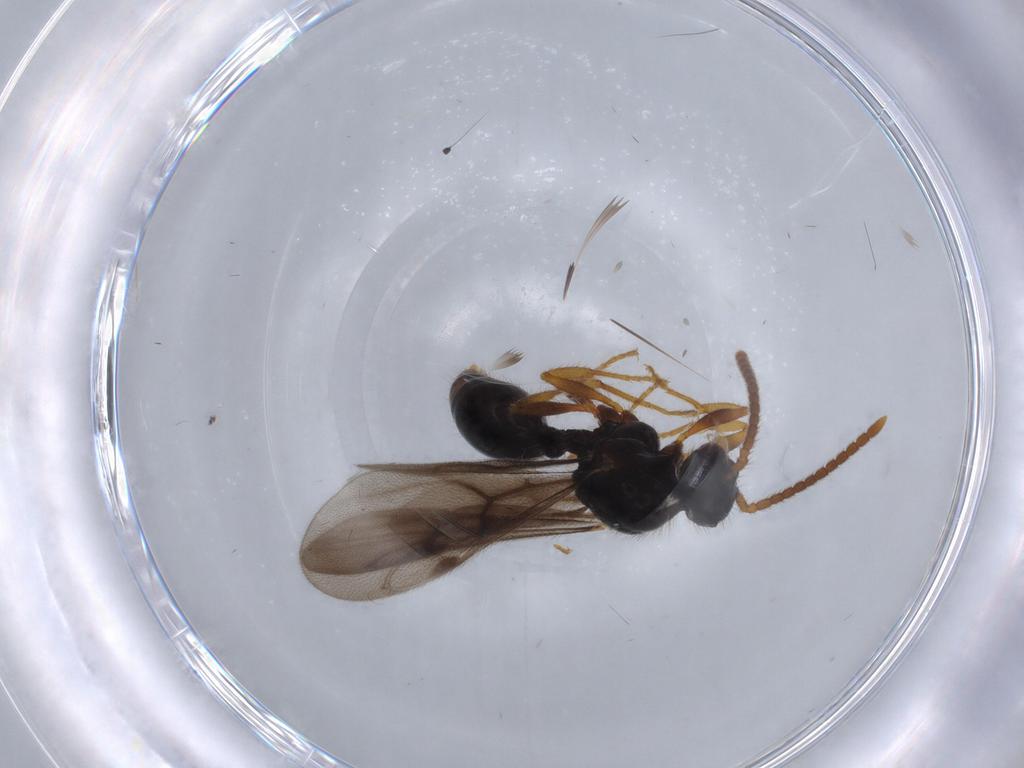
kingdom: Animalia
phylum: Arthropoda
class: Insecta
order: Hymenoptera
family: Formicidae
